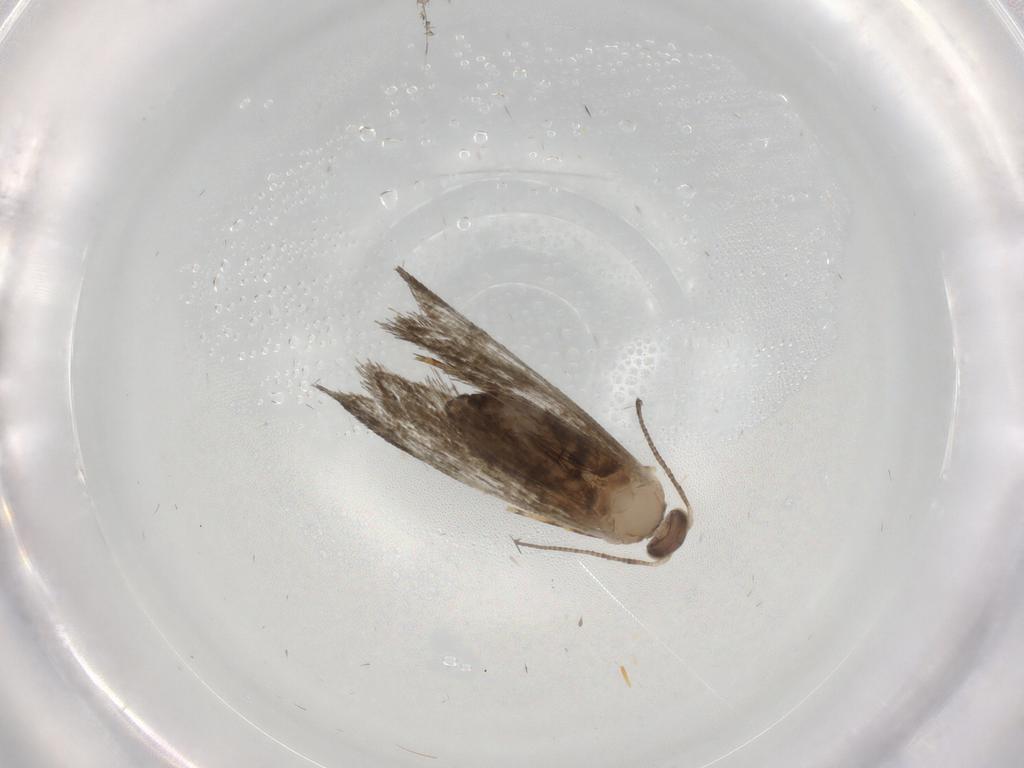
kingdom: Animalia
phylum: Arthropoda
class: Insecta
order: Lepidoptera
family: Tineidae
